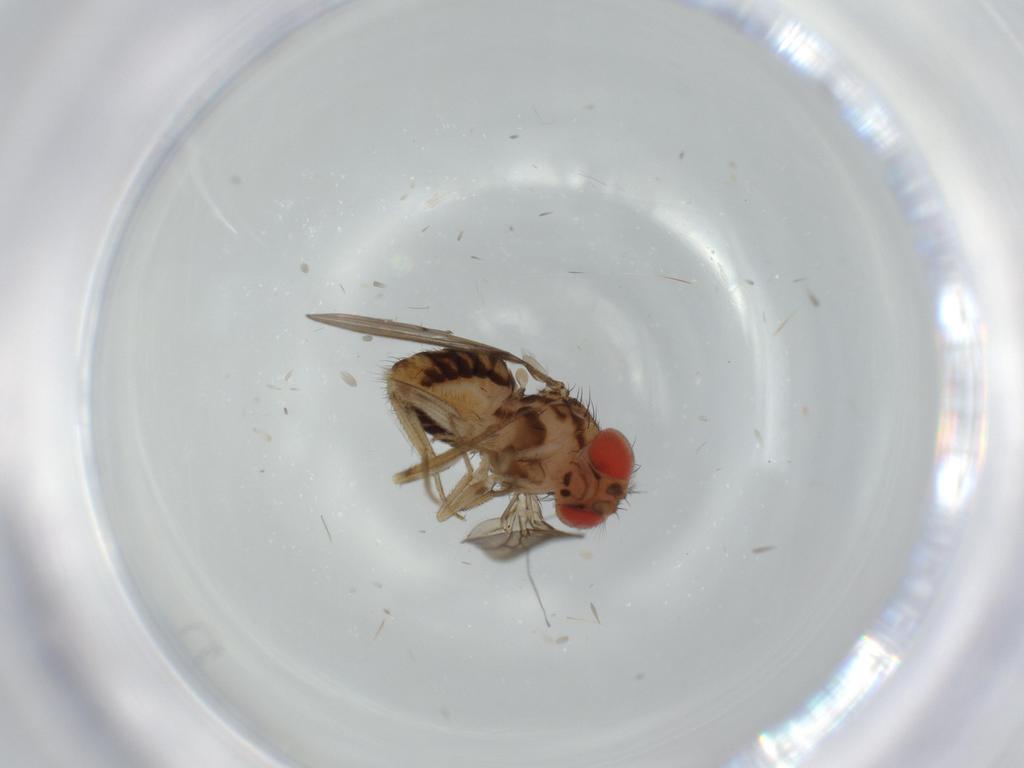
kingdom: Animalia
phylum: Arthropoda
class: Insecta
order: Diptera
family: Drosophilidae
